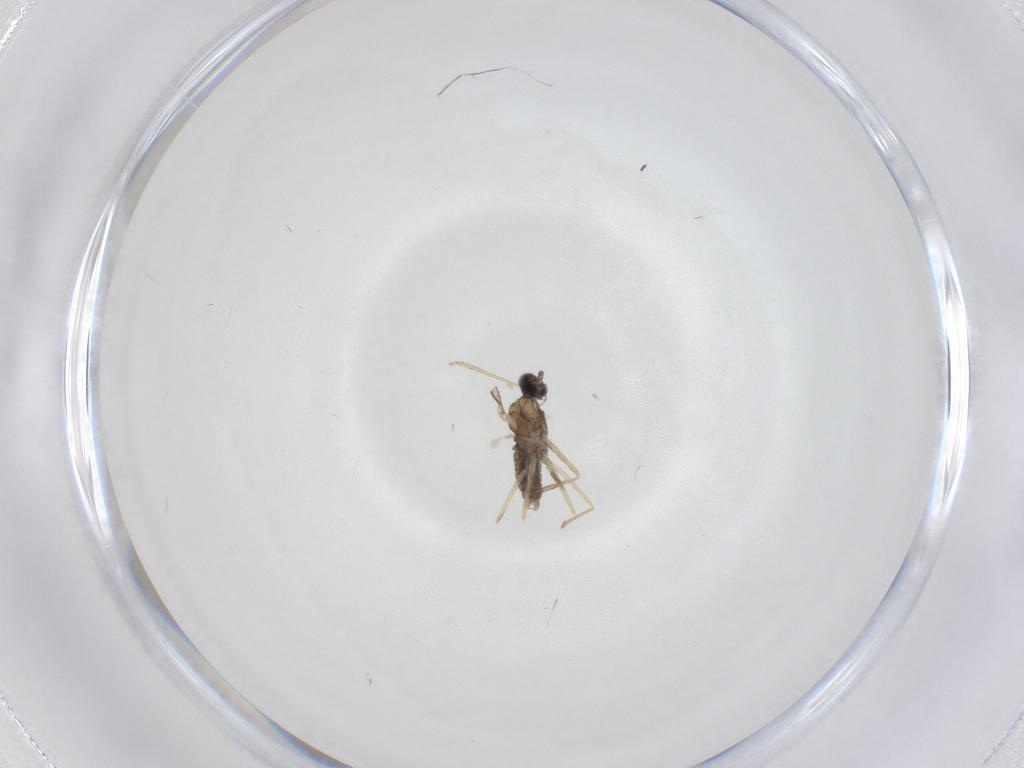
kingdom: Animalia
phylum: Arthropoda
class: Insecta
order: Diptera
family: Cecidomyiidae
